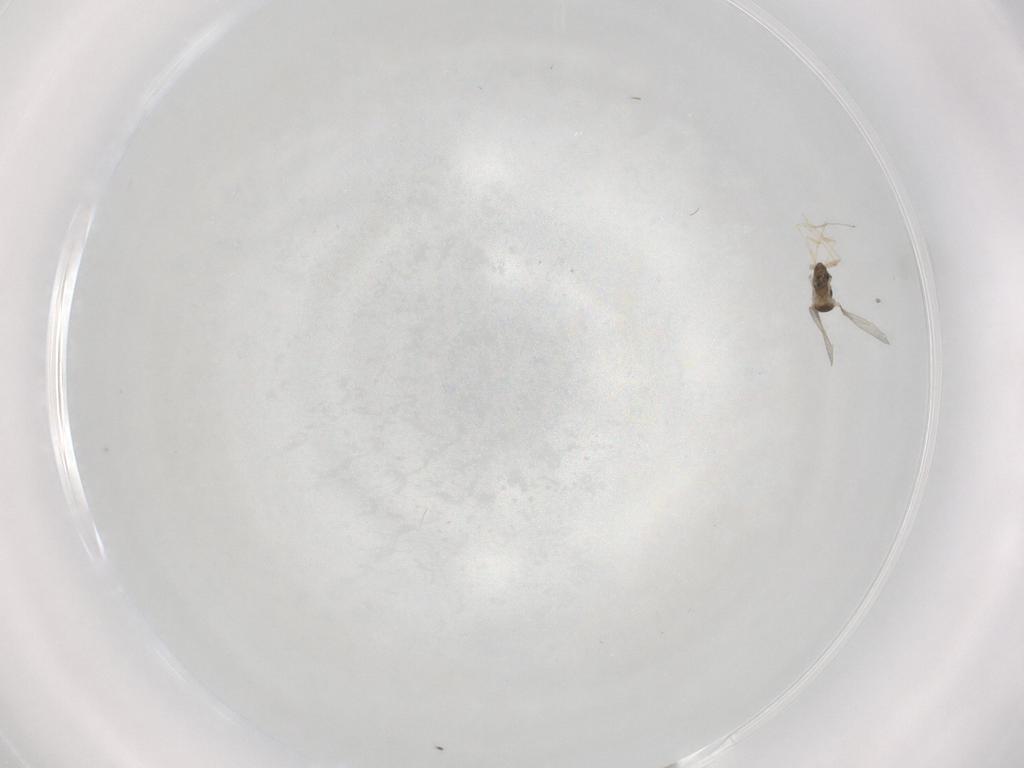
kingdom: Animalia
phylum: Arthropoda
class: Insecta
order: Diptera
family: Cecidomyiidae
